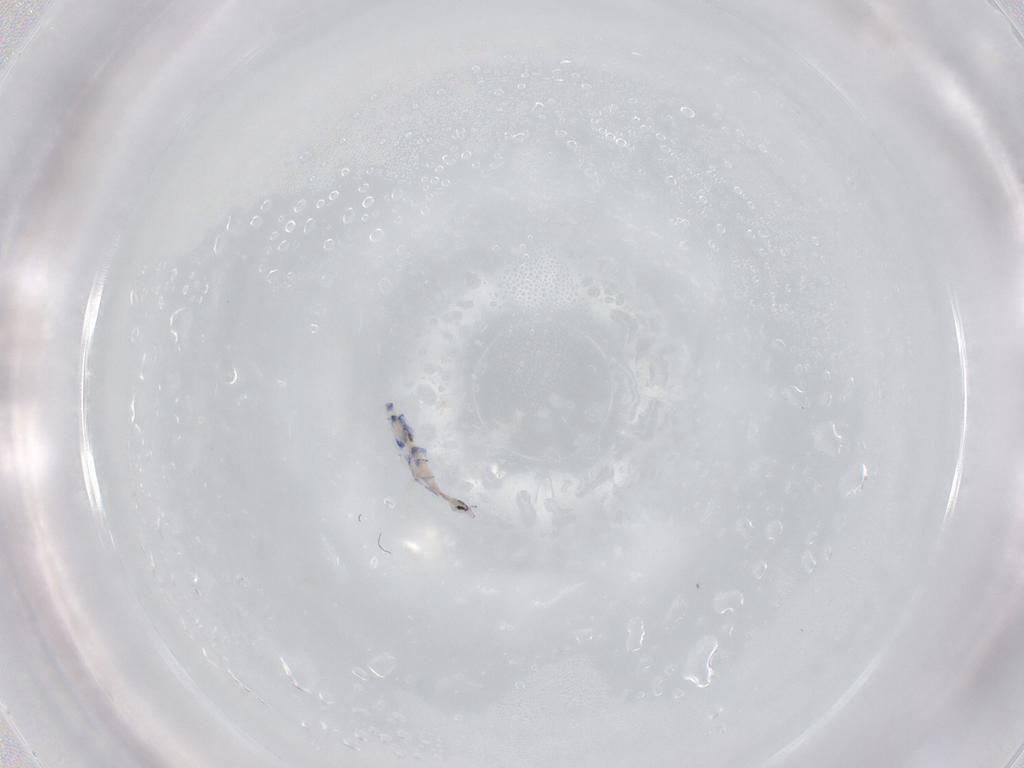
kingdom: Animalia
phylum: Arthropoda
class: Collembola
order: Entomobryomorpha
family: Entomobryidae
